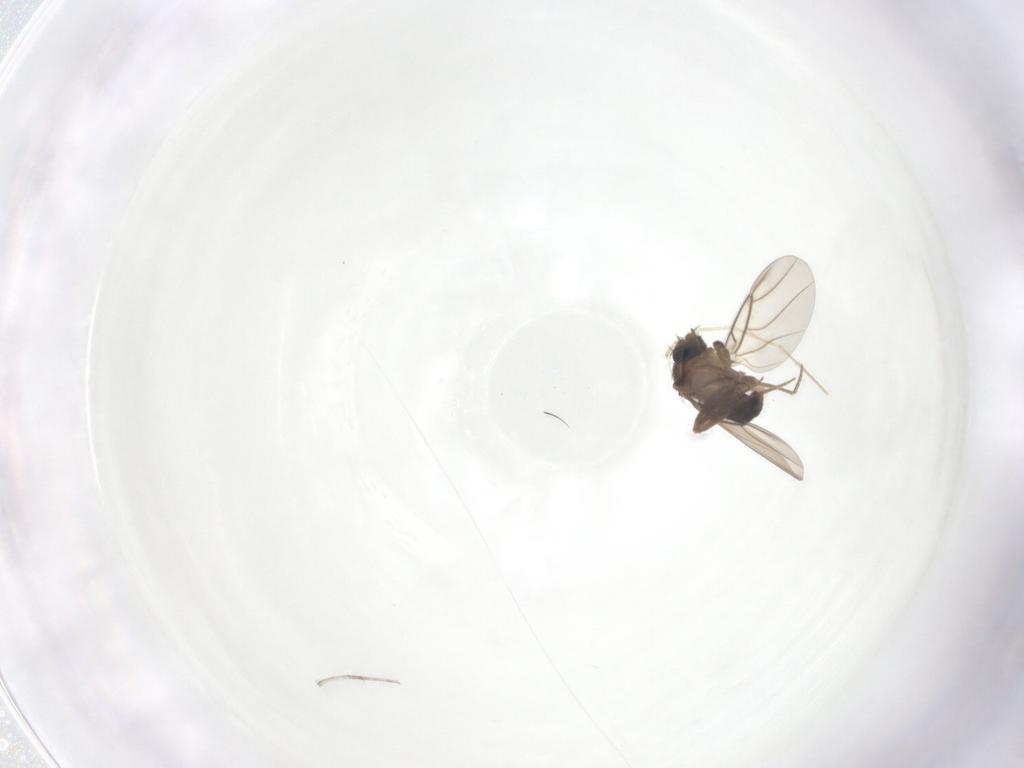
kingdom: Animalia
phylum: Arthropoda
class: Insecta
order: Diptera
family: Phoridae
